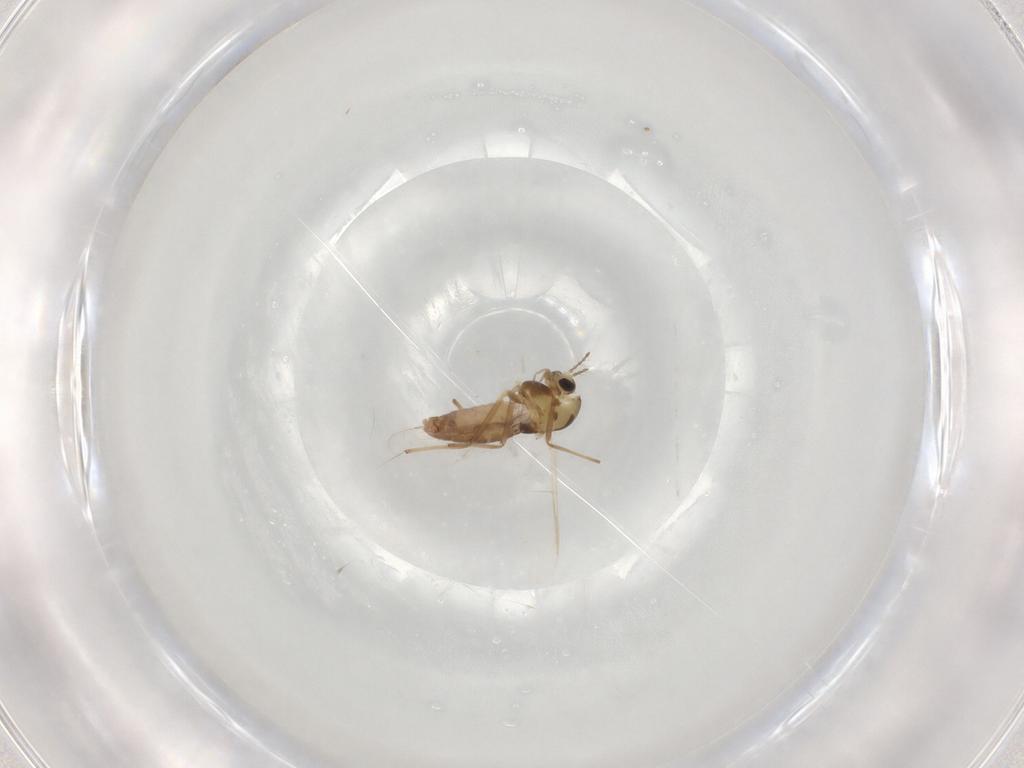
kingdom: Animalia
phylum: Arthropoda
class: Insecta
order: Diptera
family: Chironomidae
